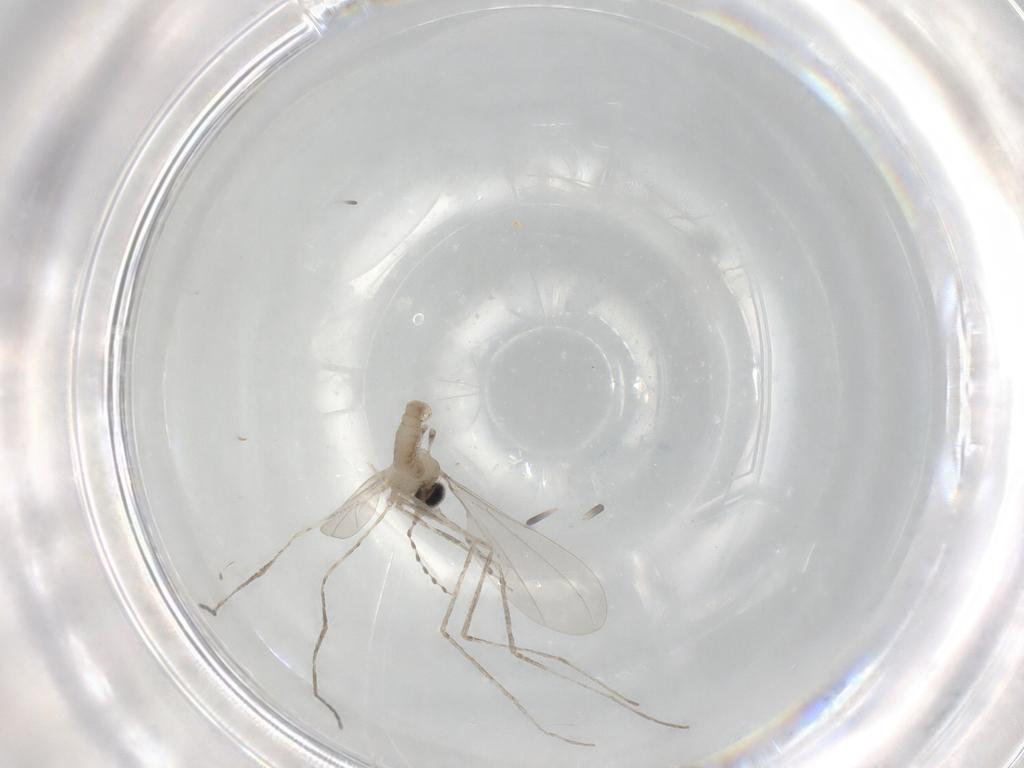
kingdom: Animalia
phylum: Arthropoda
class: Insecta
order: Diptera
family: Cecidomyiidae
